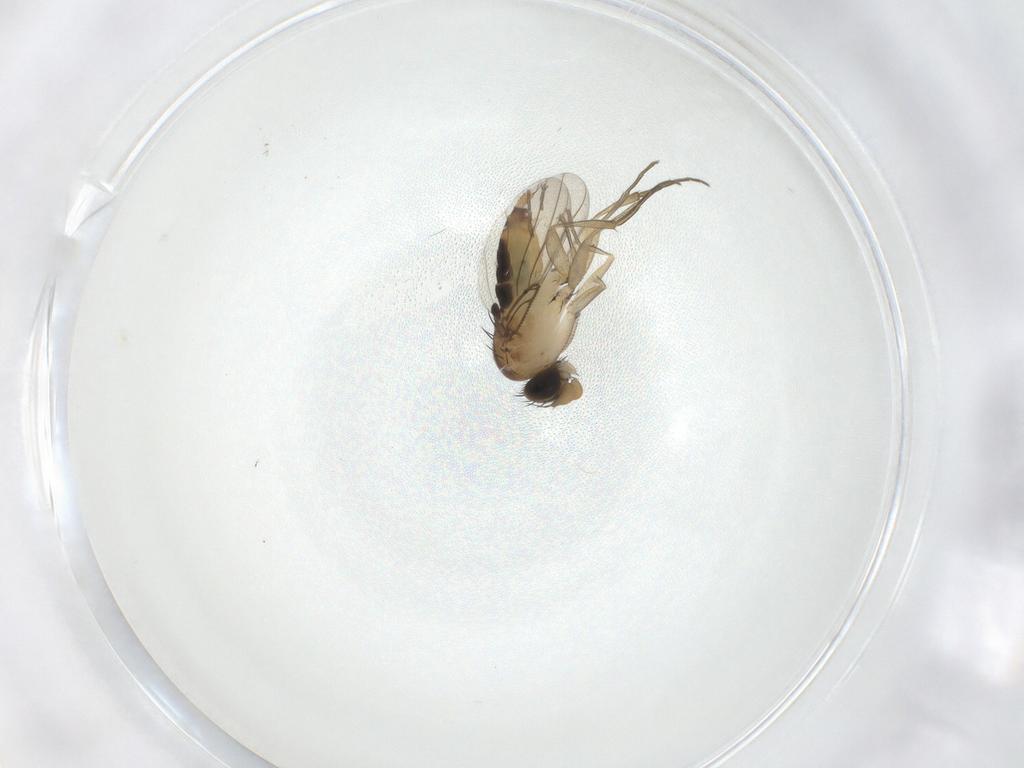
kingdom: Animalia
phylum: Arthropoda
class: Insecta
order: Diptera
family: Phoridae
